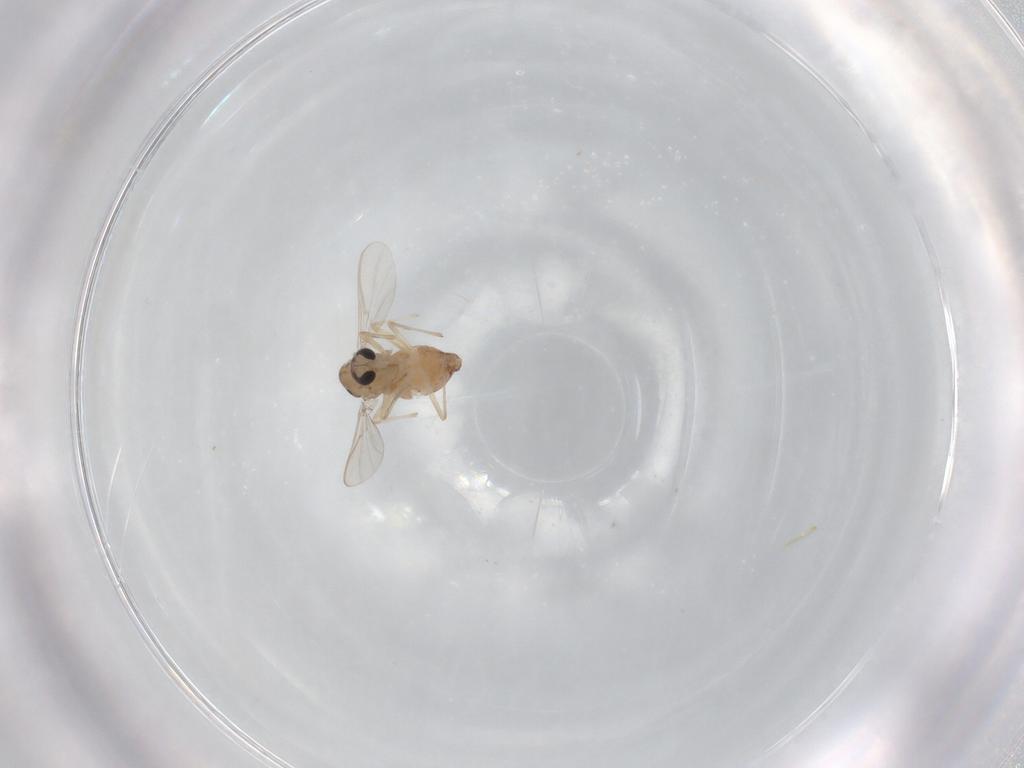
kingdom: Animalia
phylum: Arthropoda
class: Insecta
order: Diptera
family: Chironomidae
